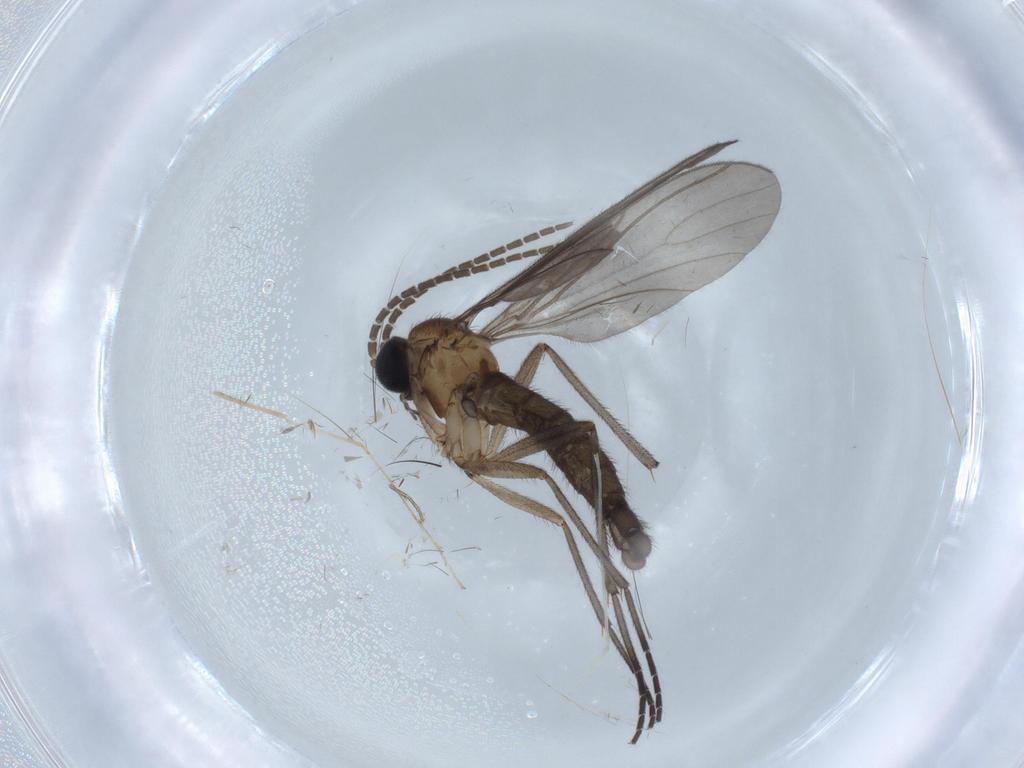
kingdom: Animalia
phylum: Arthropoda
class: Insecta
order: Diptera
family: Sciaridae
